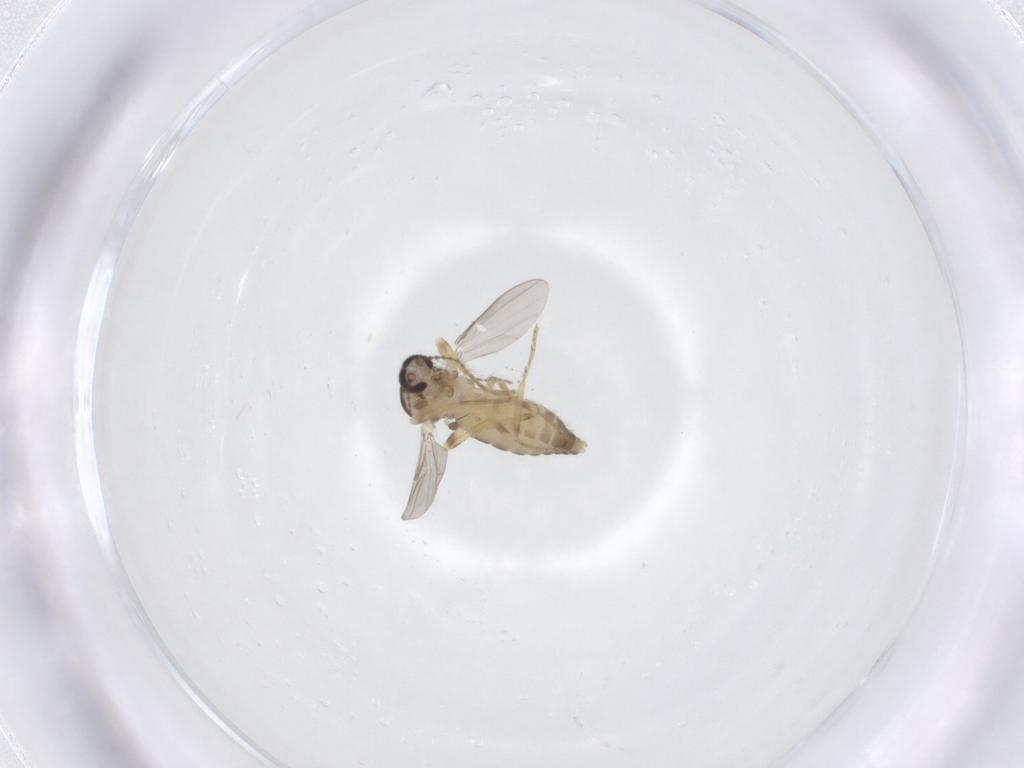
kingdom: Animalia
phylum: Arthropoda
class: Insecta
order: Diptera
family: Ceratopogonidae
